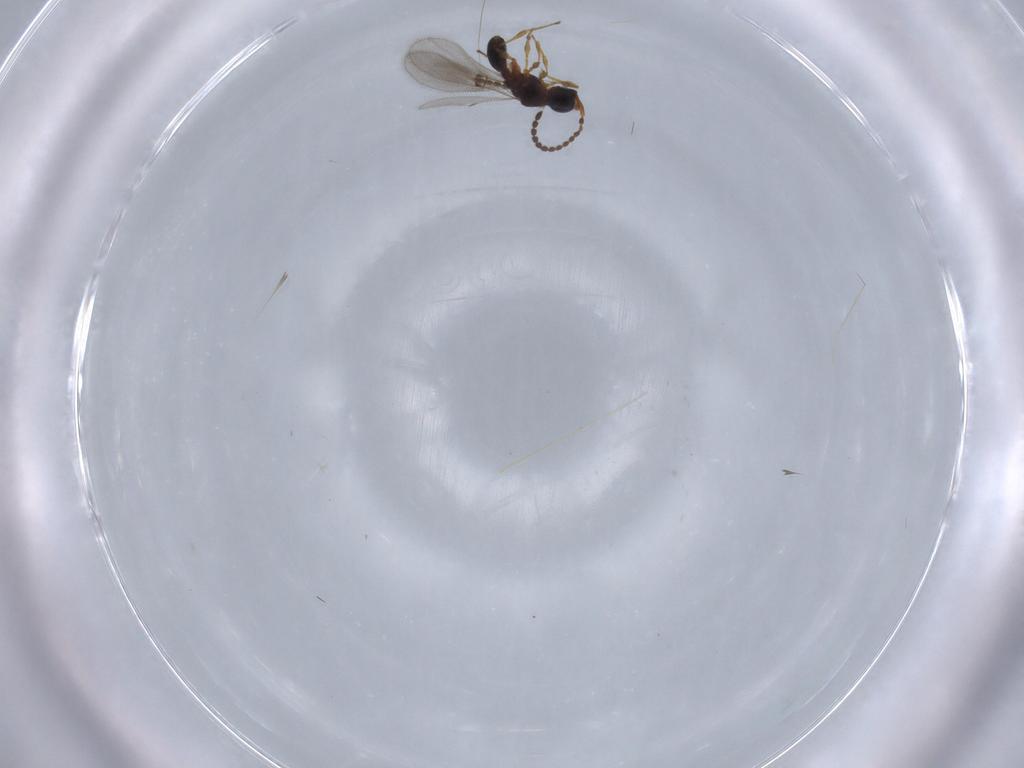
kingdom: Animalia
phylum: Arthropoda
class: Insecta
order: Hymenoptera
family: Diapriidae
